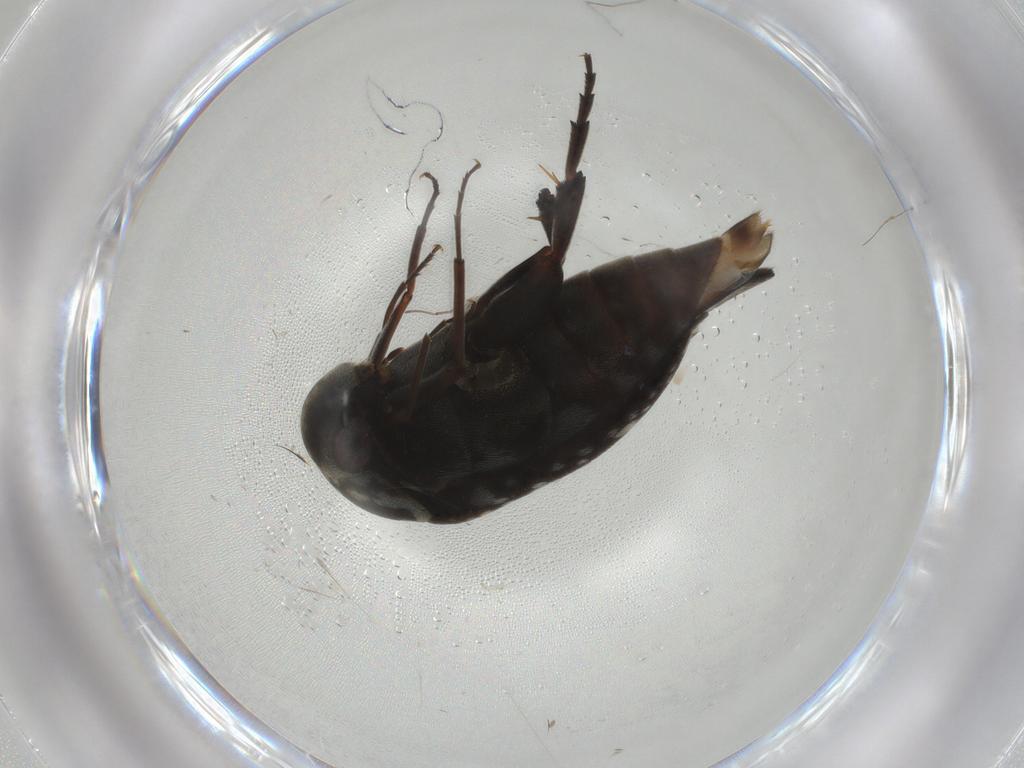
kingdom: Animalia
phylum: Arthropoda
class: Insecta
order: Coleoptera
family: Mordellidae
